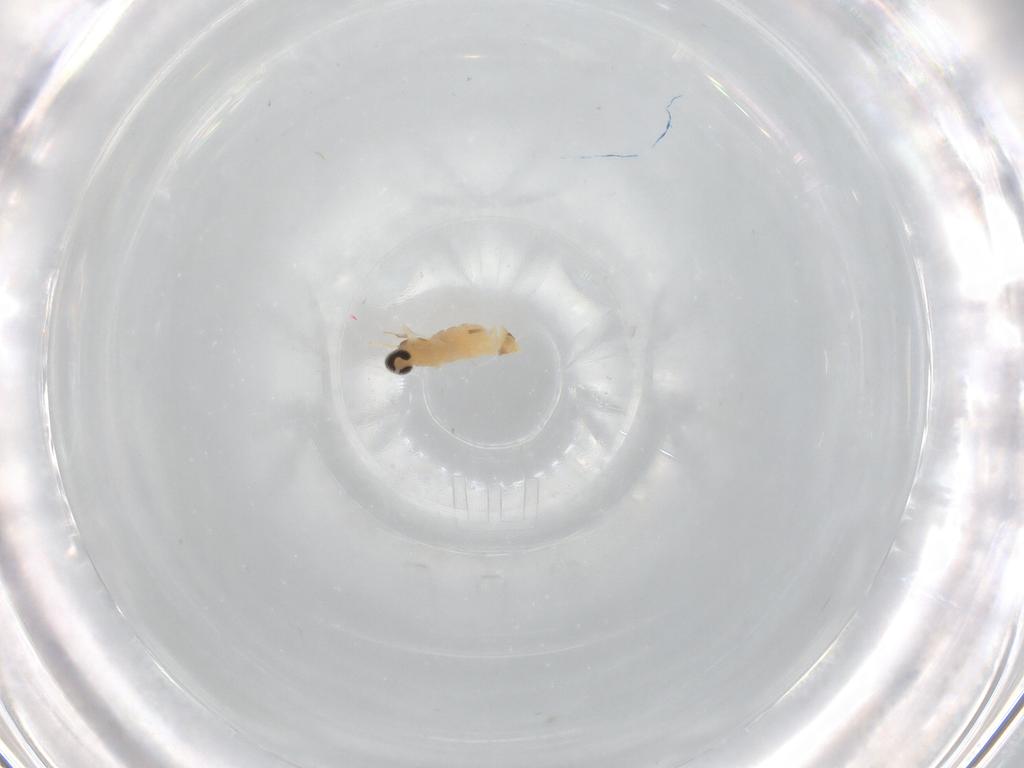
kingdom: Animalia
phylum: Arthropoda
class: Insecta
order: Diptera
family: Cecidomyiidae
